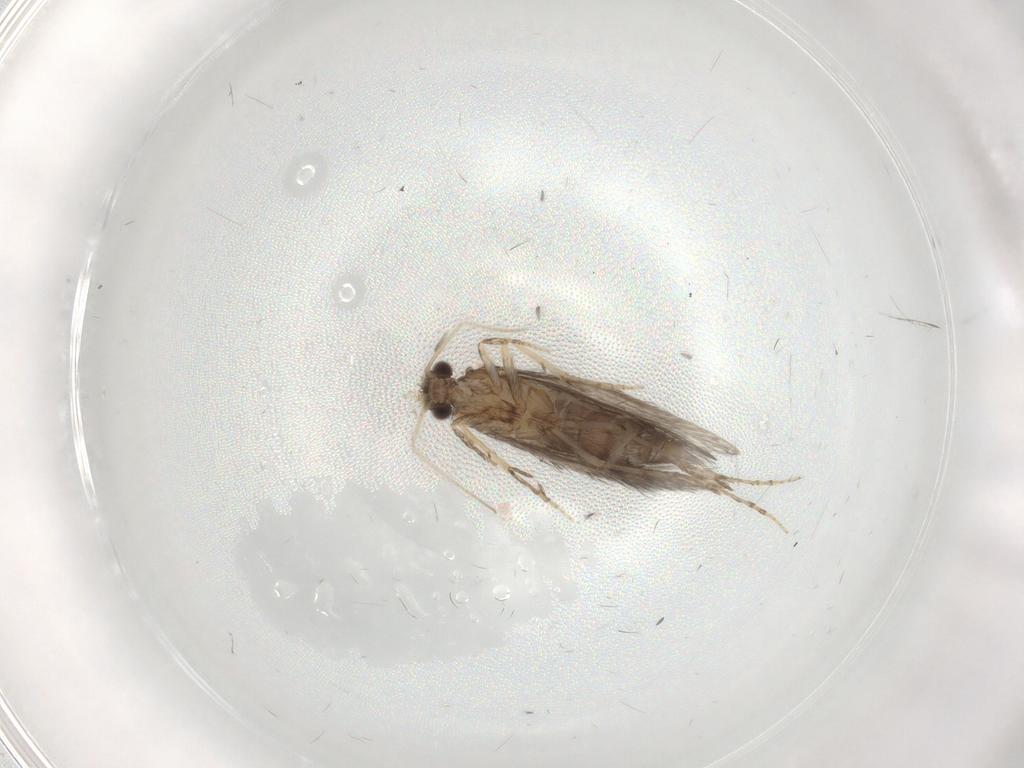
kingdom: Animalia
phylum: Arthropoda
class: Insecta
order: Trichoptera
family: Hydroptilidae
